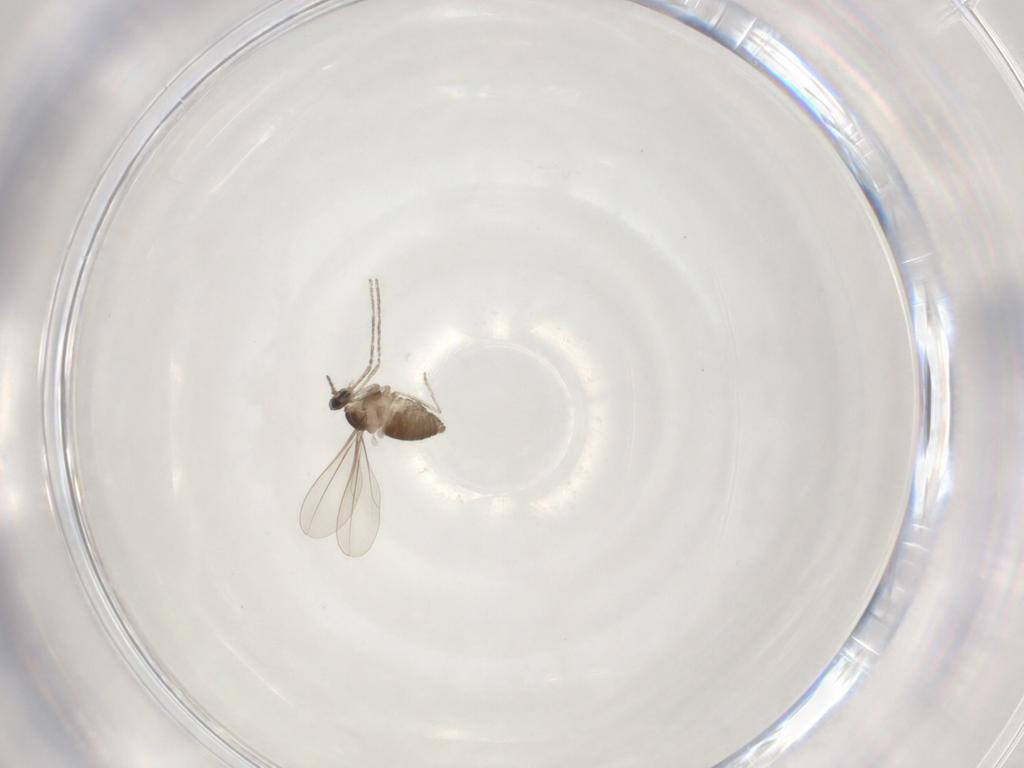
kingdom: Animalia
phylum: Arthropoda
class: Insecta
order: Diptera
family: Cecidomyiidae
